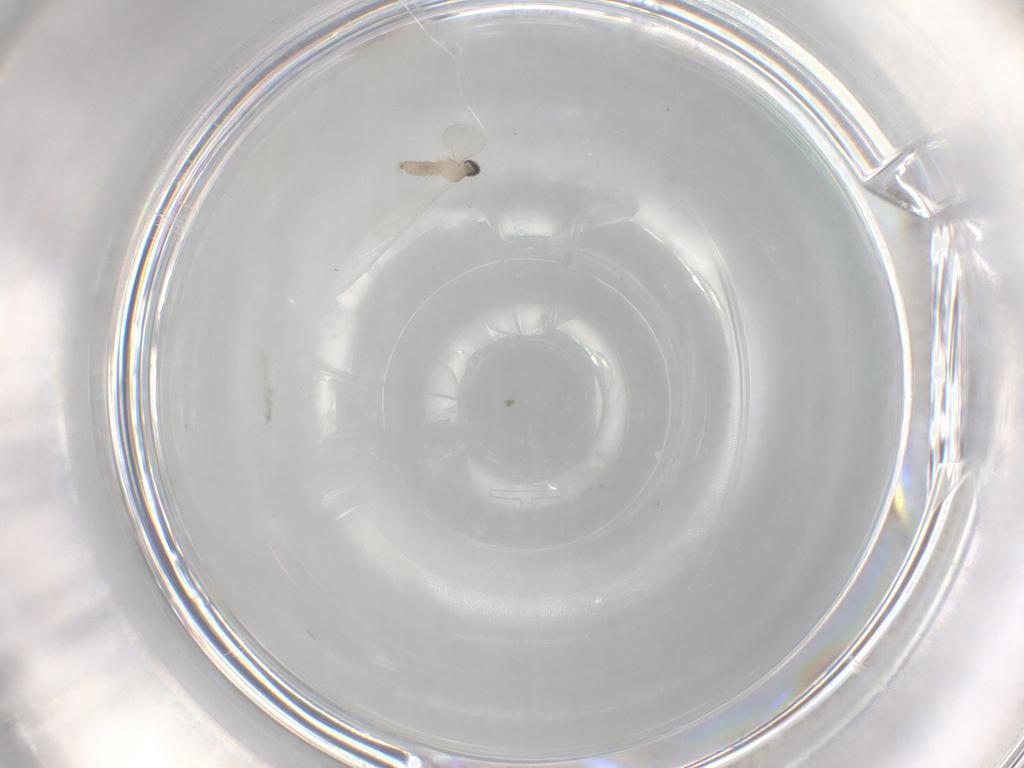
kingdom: Animalia
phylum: Arthropoda
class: Insecta
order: Diptera
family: Cecidomyiidae
